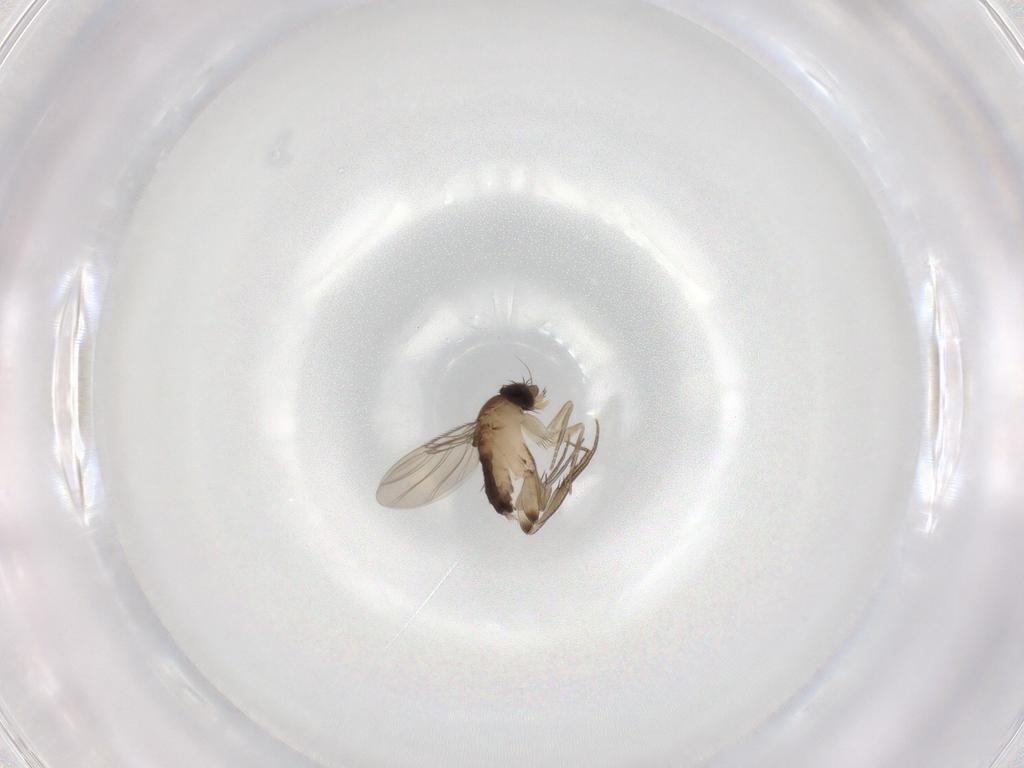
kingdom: Animalia
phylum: Arthropoda
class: Insecta
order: Diptera
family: Phoridae
